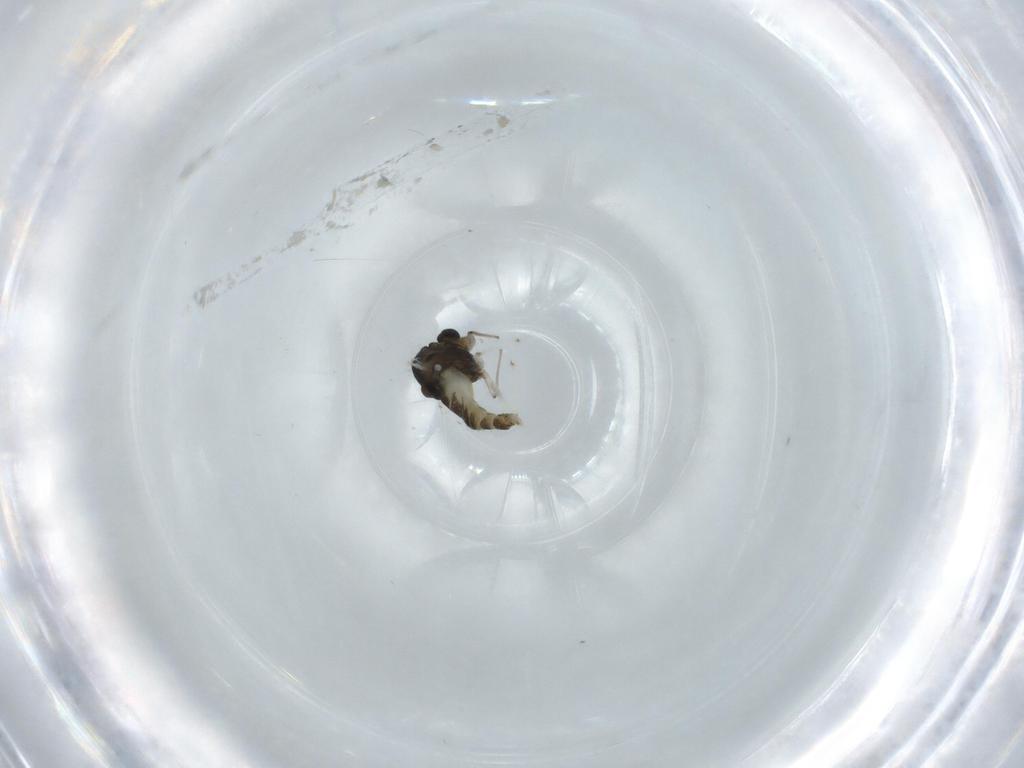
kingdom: Animalia
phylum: Arthropoda
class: Insecta
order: Diptera
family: Chironomidae
